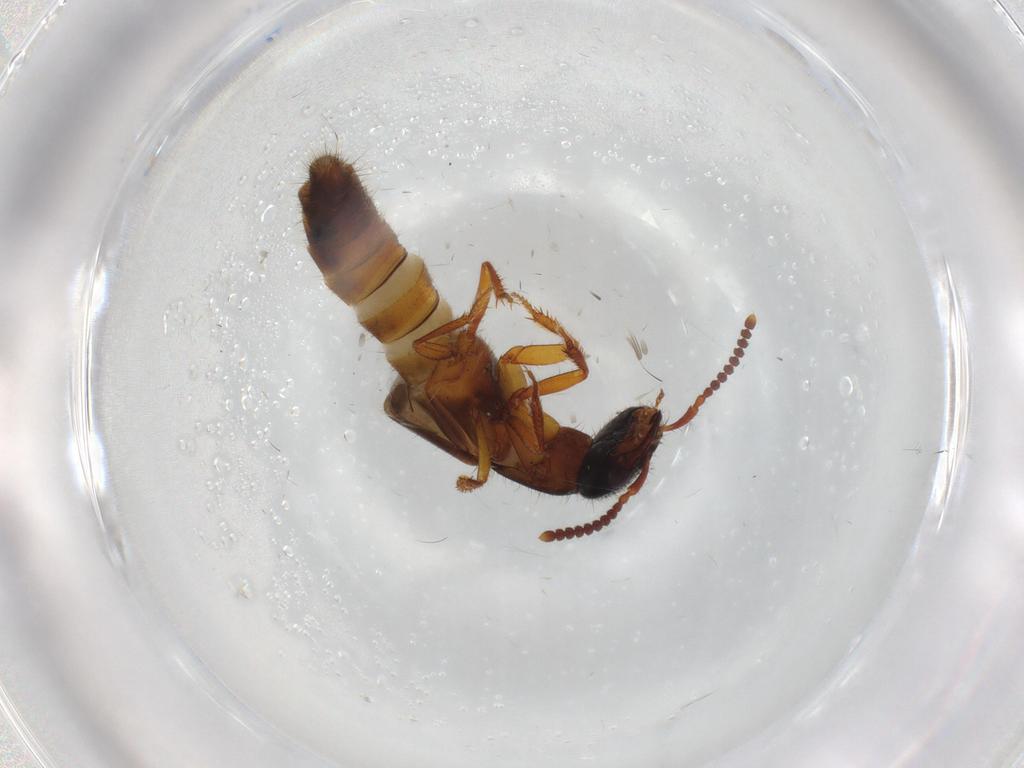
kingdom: Animalia
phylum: Arthropoda
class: Insecta
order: Coleoptera
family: Staphylinidae
